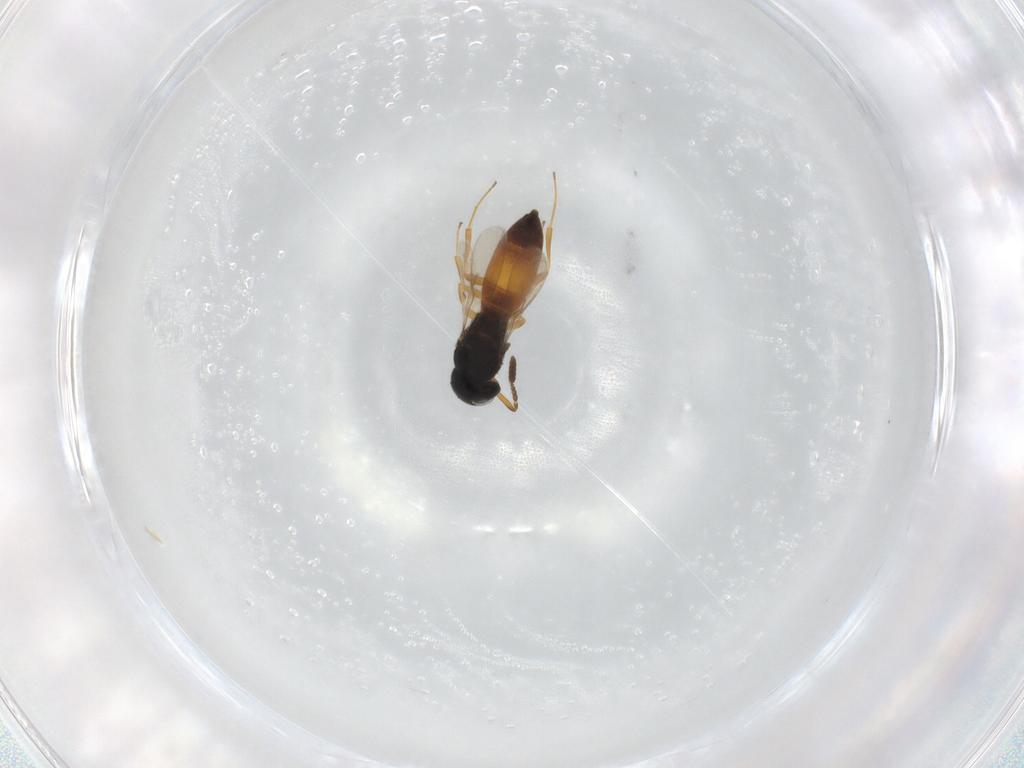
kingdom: Animalia
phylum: Arthropoda
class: Insecta
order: Hymenoptera
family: Scelionidae
